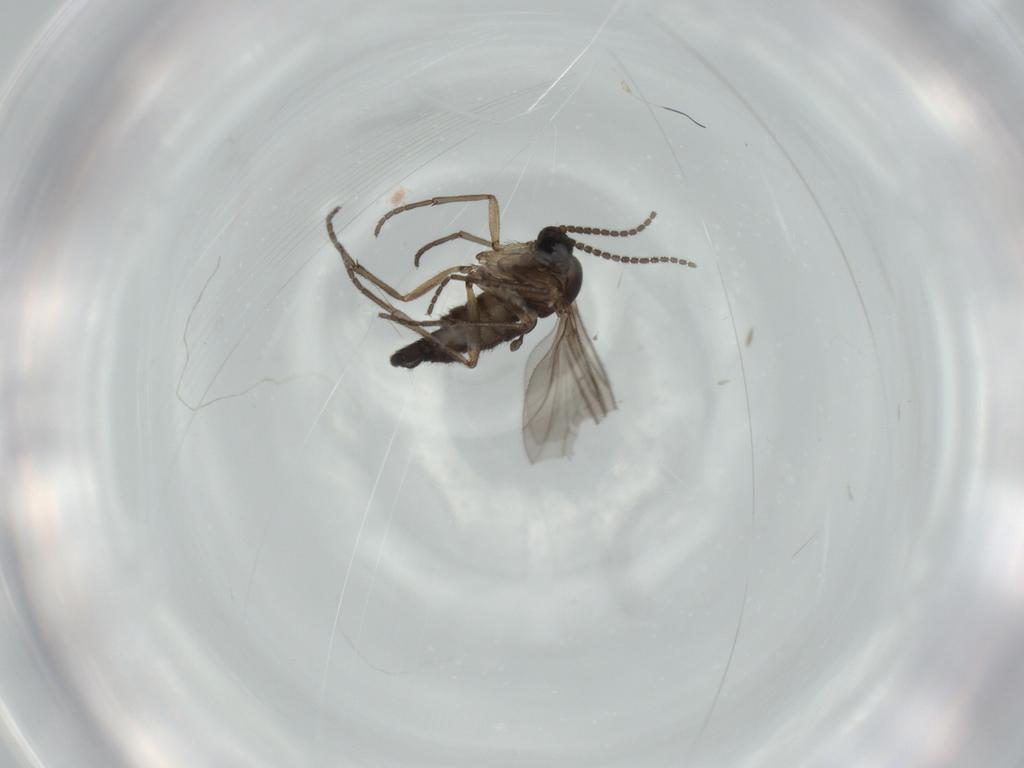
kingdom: Animalia
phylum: Arthropoda
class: Insecta
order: Diptera
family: Sciaridae
